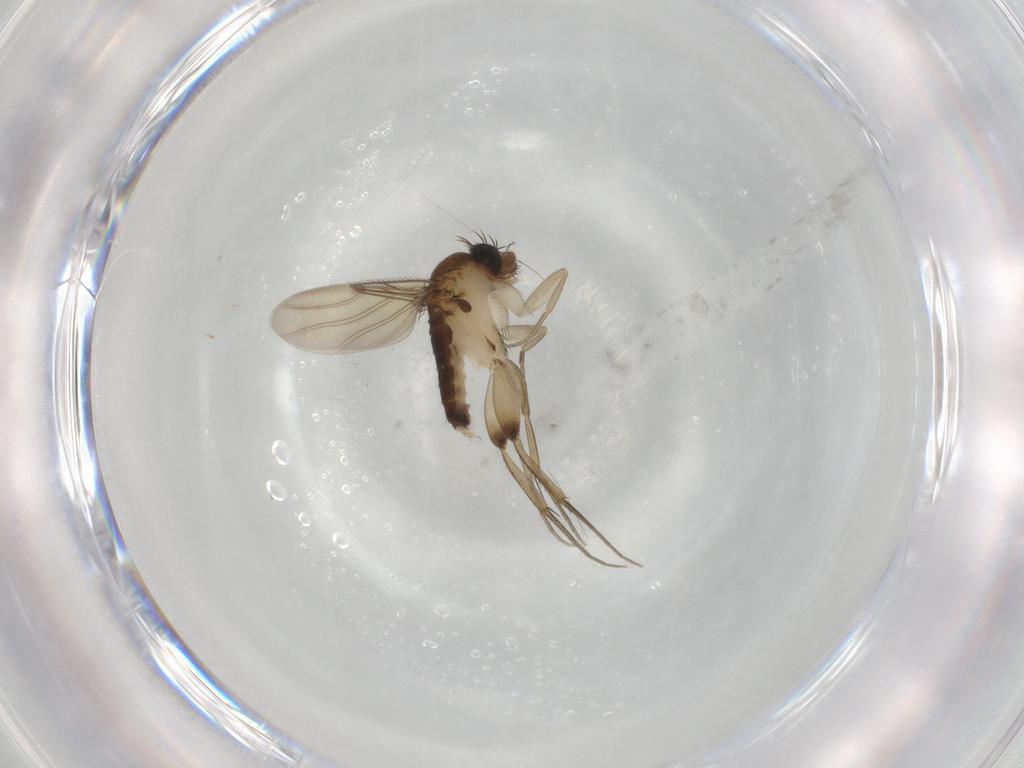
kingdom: Animalia
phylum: Arthropoda
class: Insecta
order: Diptera
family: Phoridae
